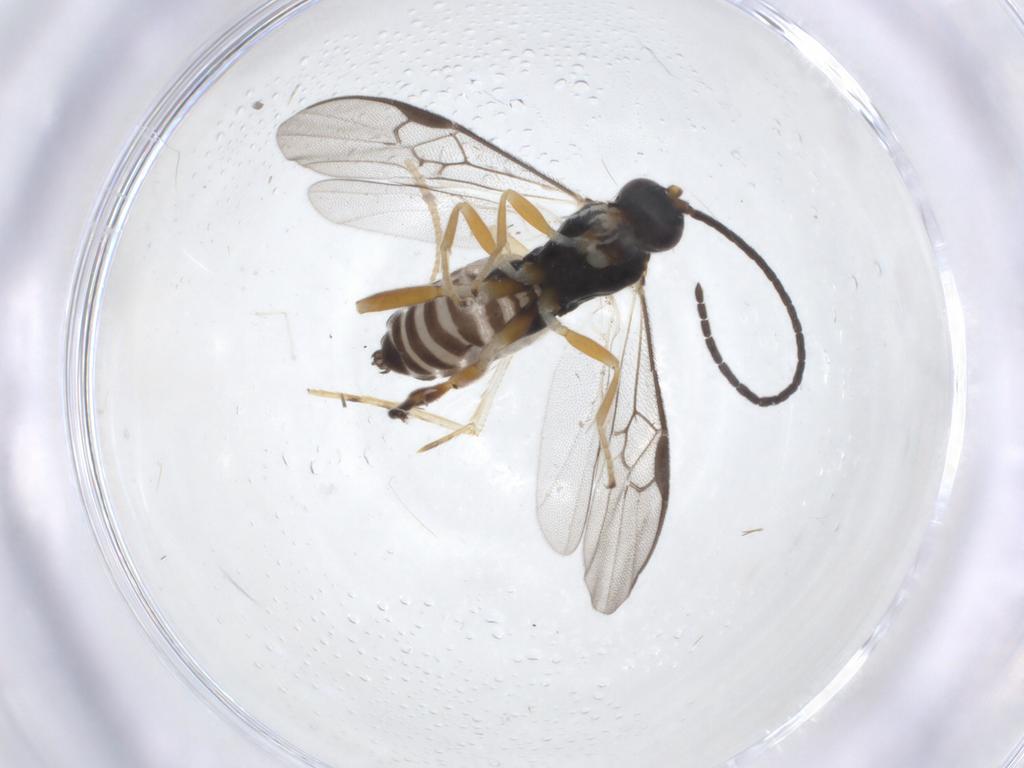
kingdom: Animalia
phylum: Arthropoda
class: Insecta
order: Hymenoptera
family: Braconidae
